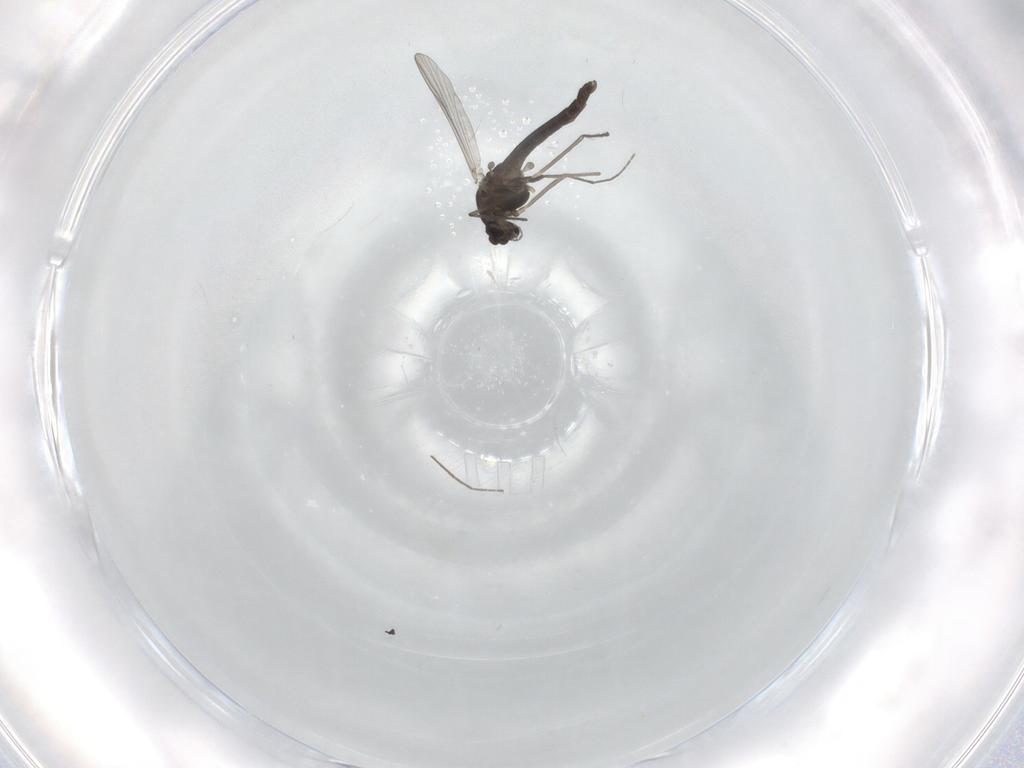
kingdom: Animalia
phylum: Arthropoda
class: Insecta
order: Diptera
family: Chironomidae
